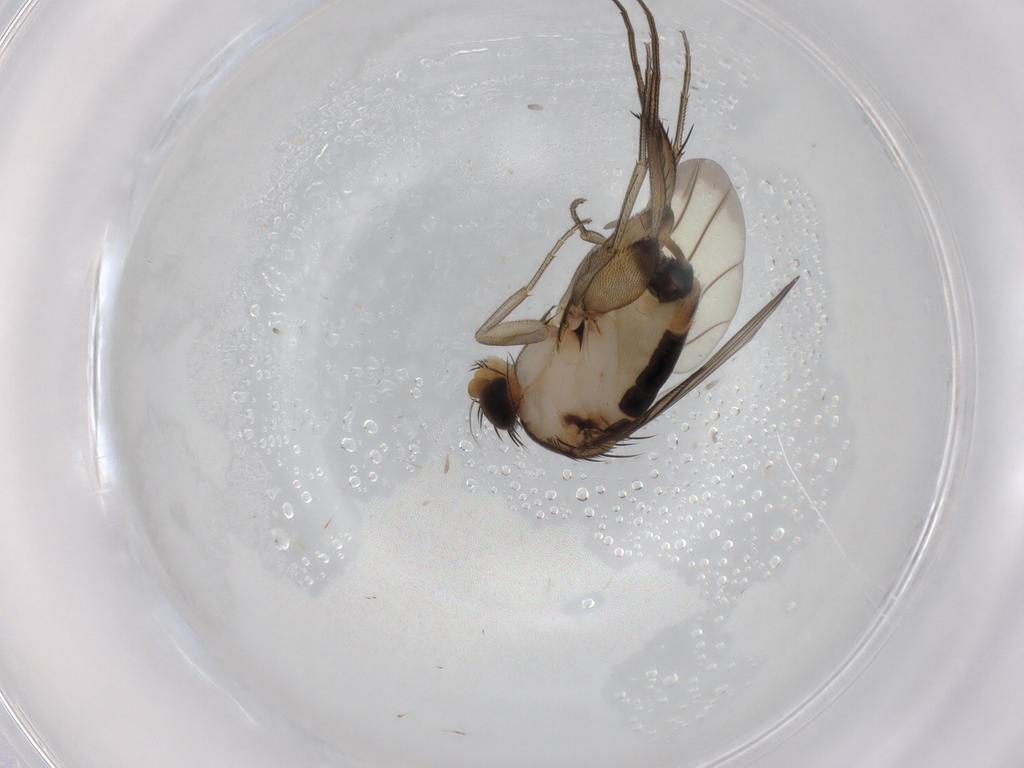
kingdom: Animalia
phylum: Arthropoda
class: Insecta
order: Diptera
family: Phoridae
